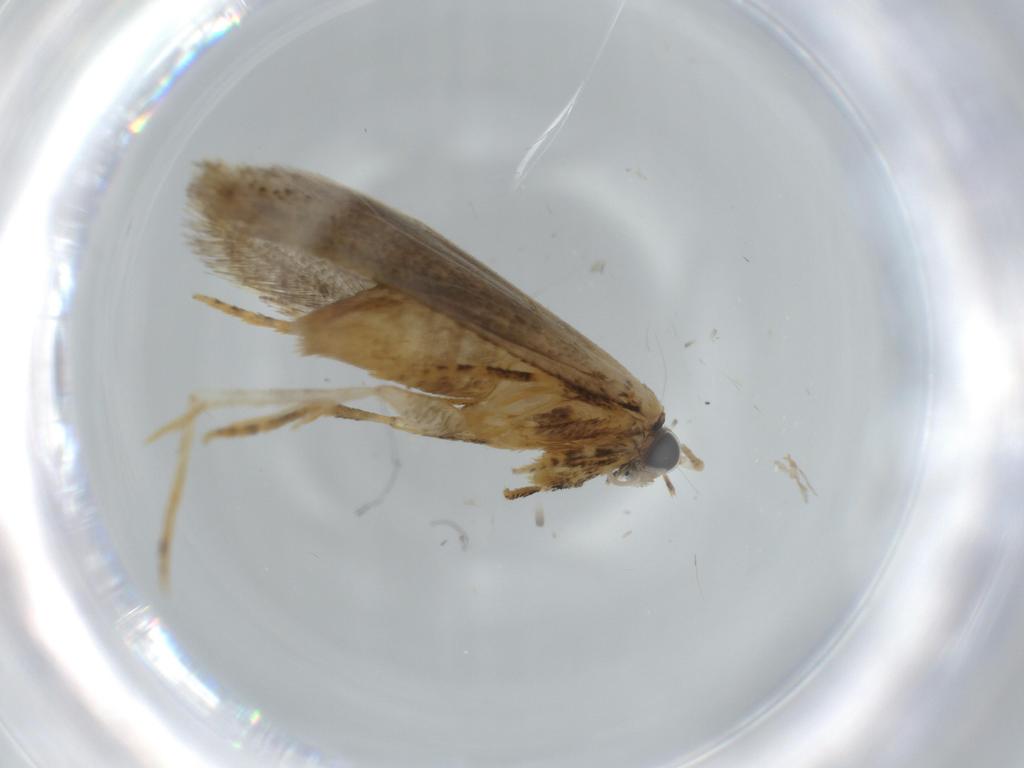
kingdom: Animalia
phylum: Arthropoda
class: Insecta
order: Lepidoptera
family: Tineidae
